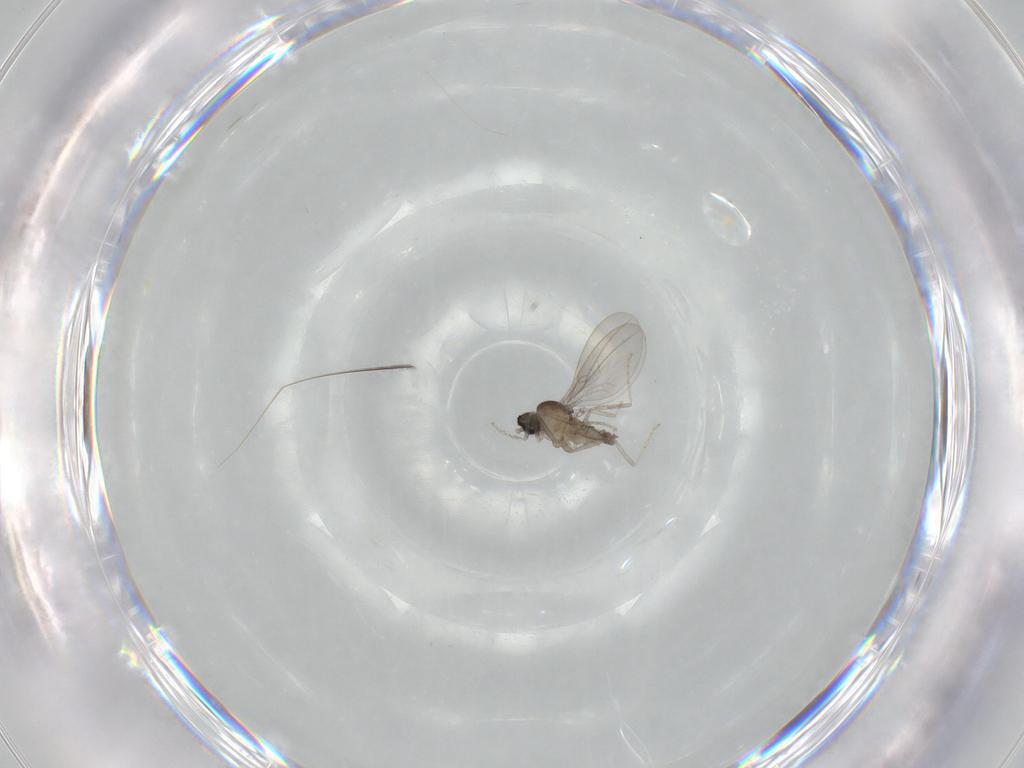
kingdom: Animalia
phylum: Arthropoda
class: Insecta
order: Diptera
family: Cecidomyiidae
